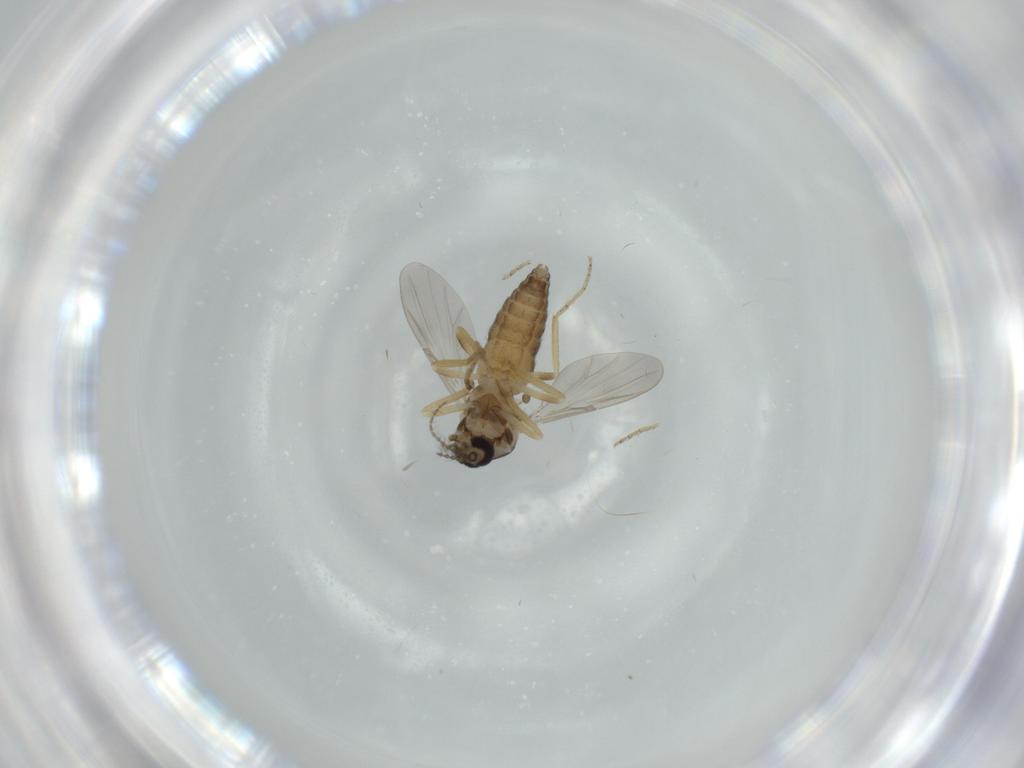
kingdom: Animalia
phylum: Arthropoda
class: Insecta
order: Diptera
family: Ceratopogonidae
